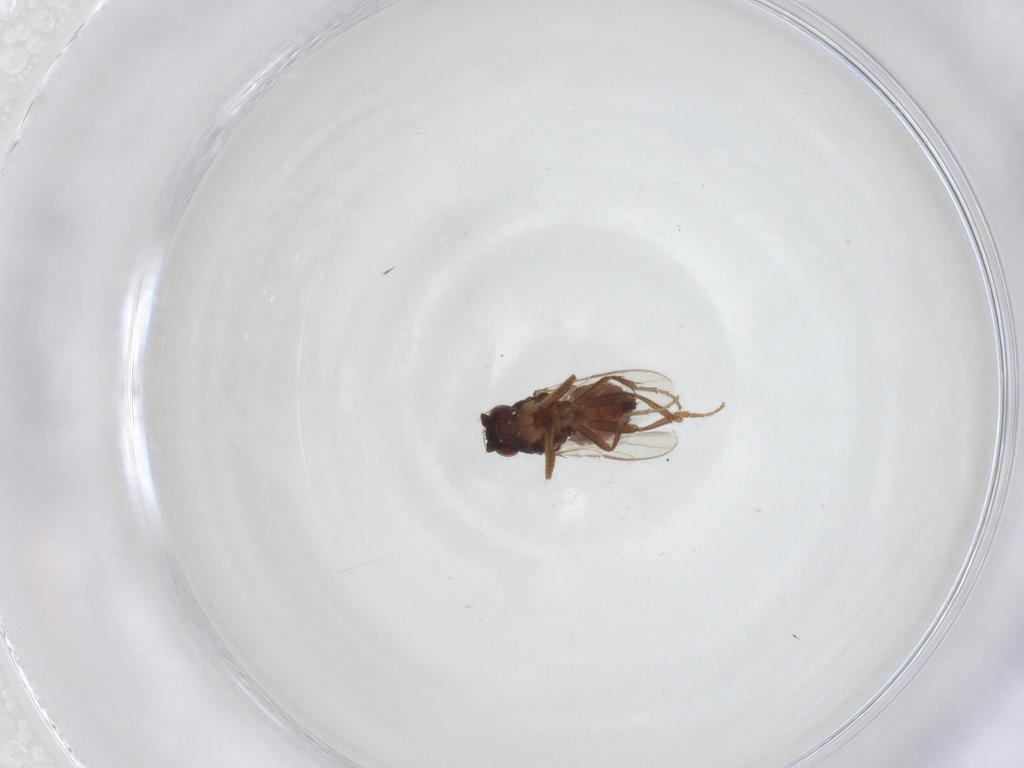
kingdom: Animalia
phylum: Arthropoda
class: Insecta
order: Diptera
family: Sphaeroceridae
